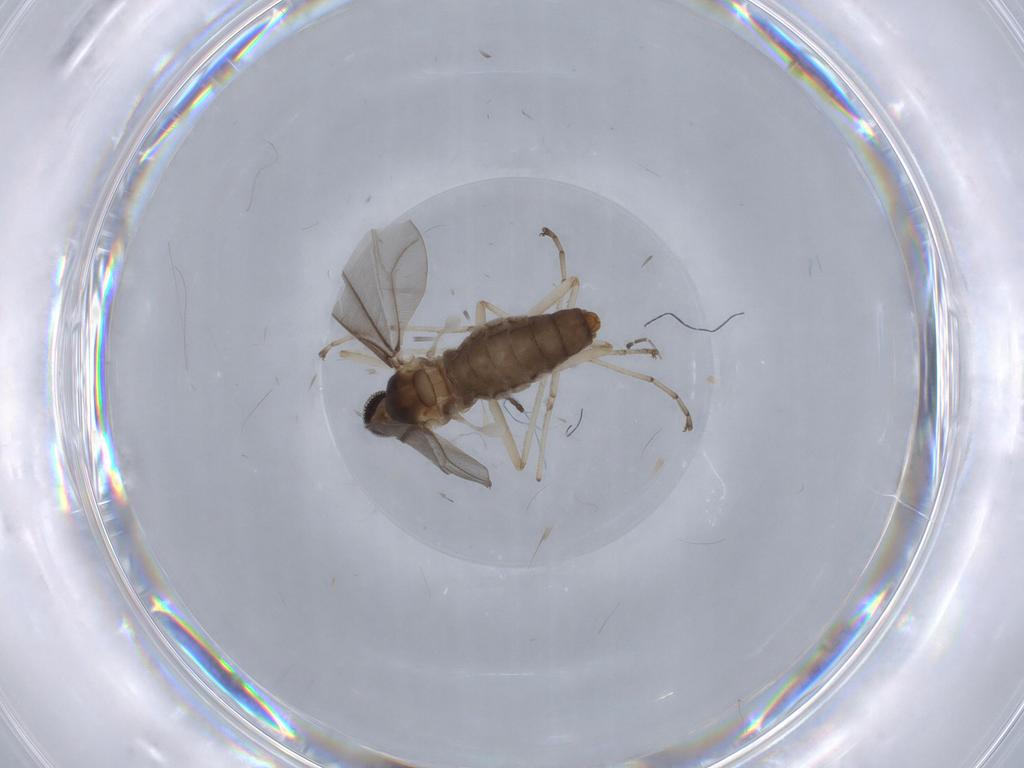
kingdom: Animalia
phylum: Arthropoda
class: Insecta
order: Diptera
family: Cecidomyiidae
